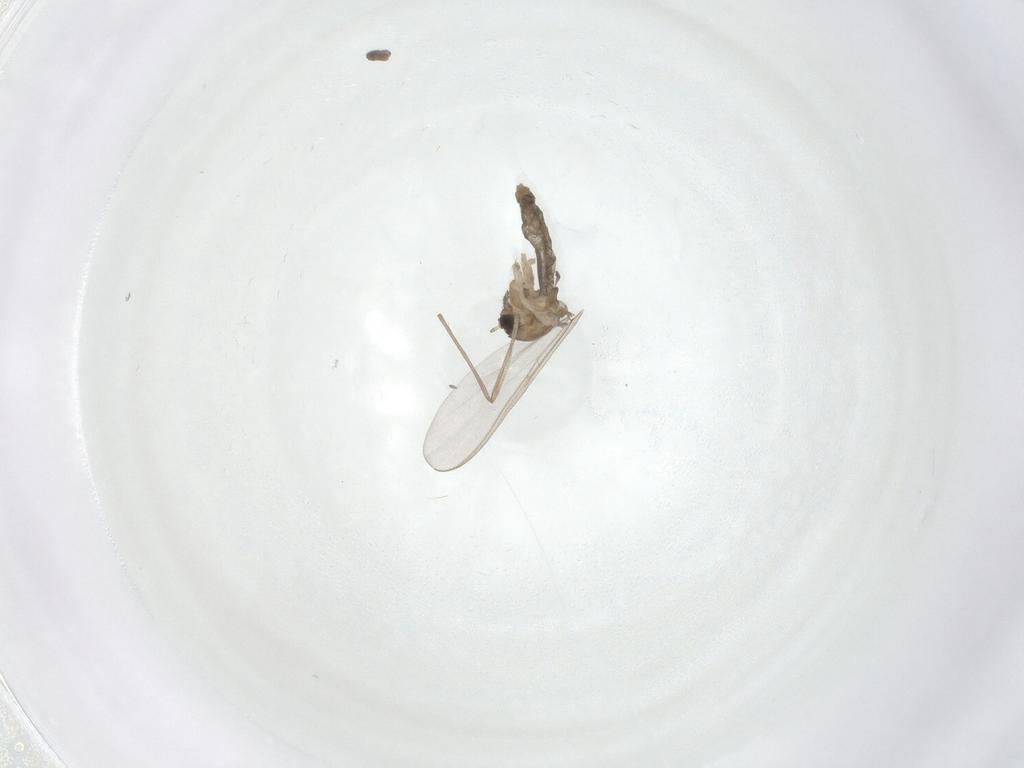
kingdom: Animalia
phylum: Arthropoda
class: Insecta
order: Diptera
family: Chironomidae
